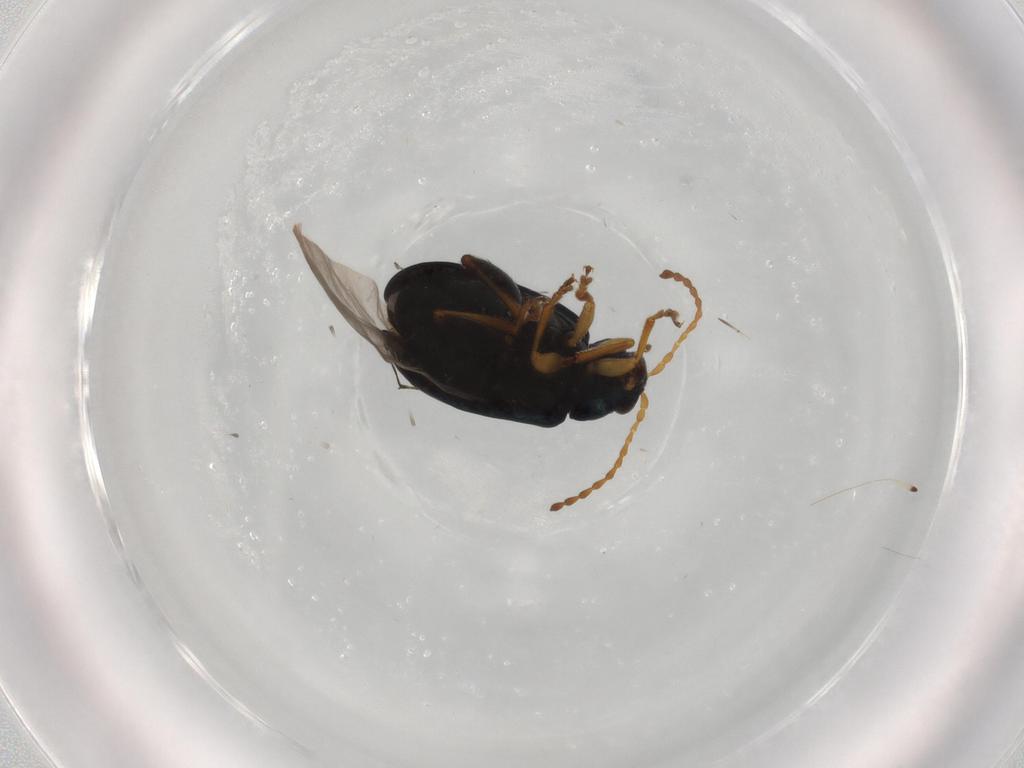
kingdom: Animalia
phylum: Arthropoda
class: Insecta
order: Coleoptera
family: Chrysomelidae
